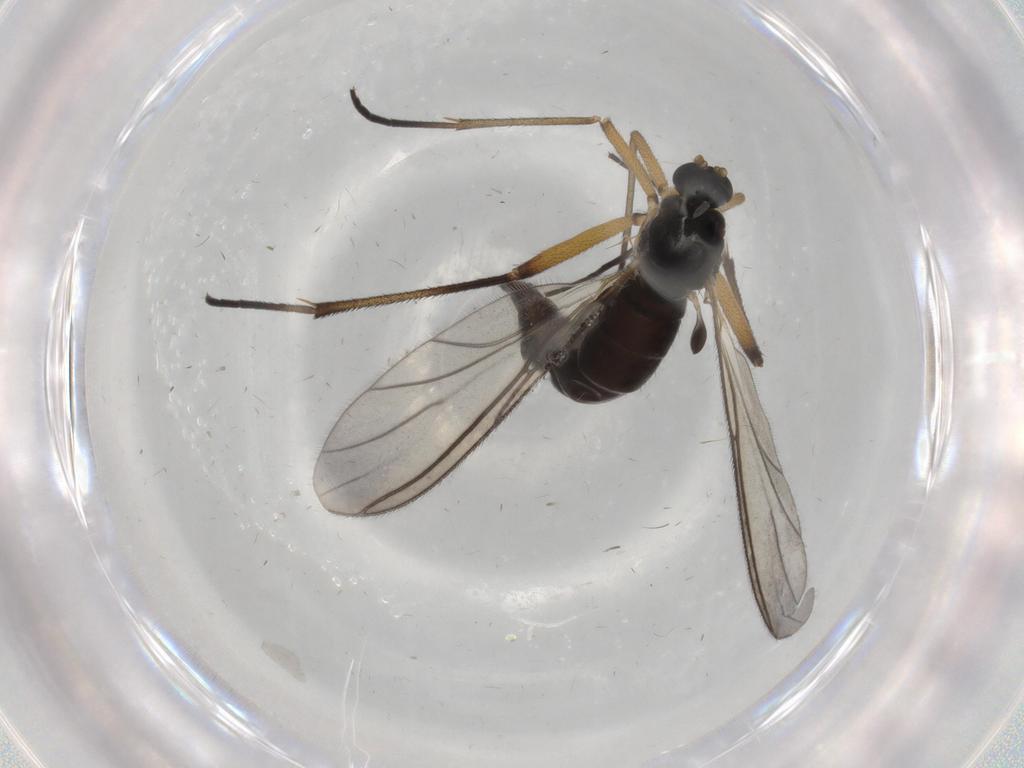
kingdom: Animalia
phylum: Arthropoda
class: Insecta
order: Diptera
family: Sciaridae
